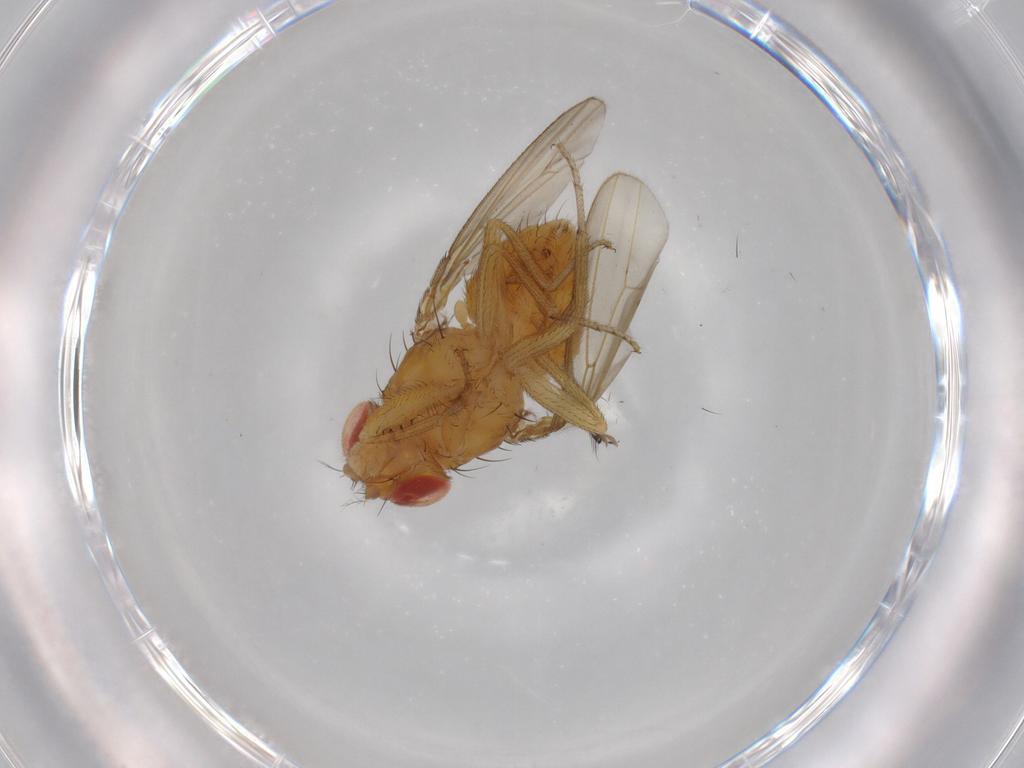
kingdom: Animalia
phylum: Arthropoda
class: Insecta
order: Diptera
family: Drosophilidae
